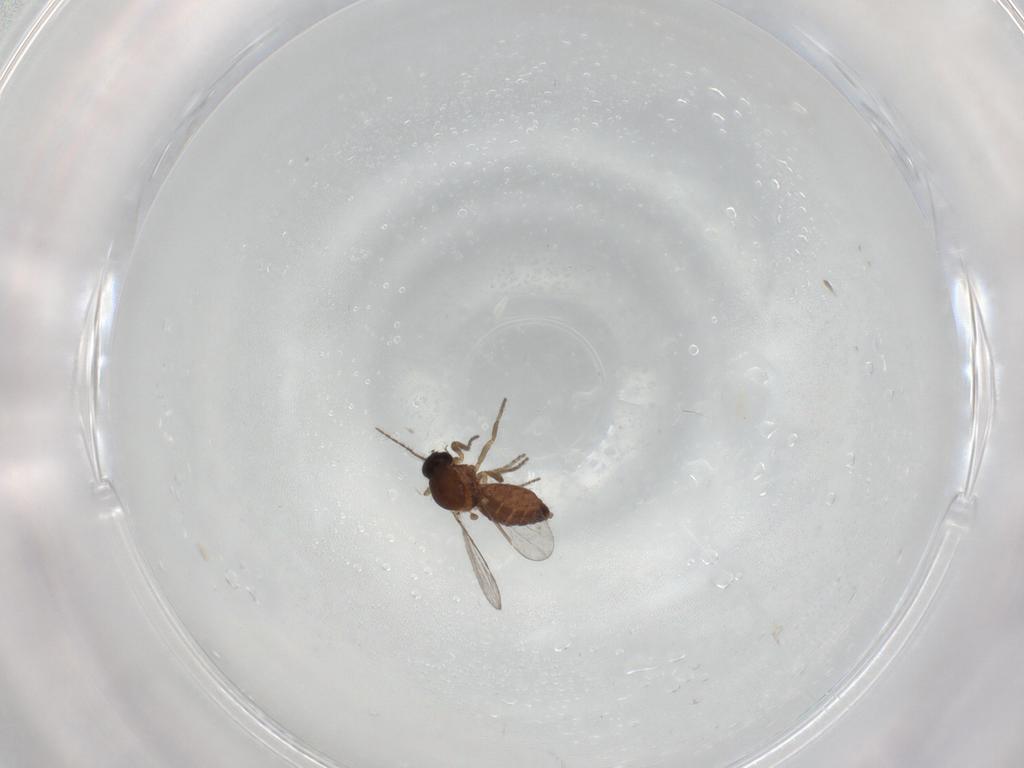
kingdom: Animalia
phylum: Arthropoda
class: Insecta
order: Diptera
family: Ceratopogonidae
